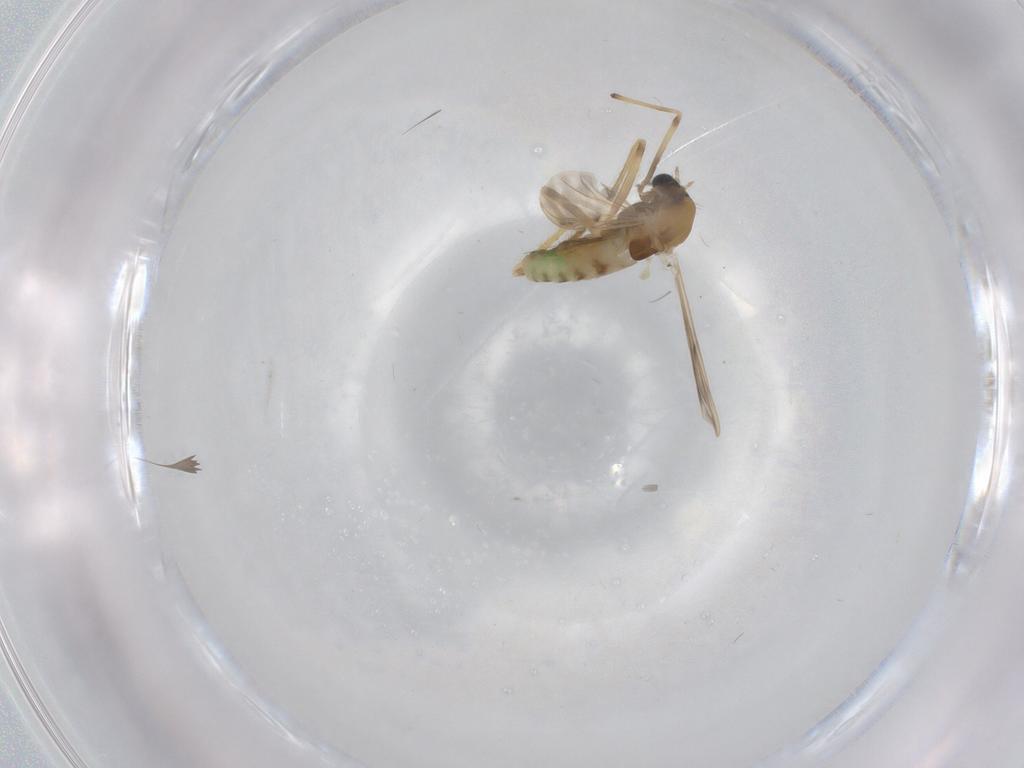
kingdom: Animalia
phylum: Arthropoda
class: Insecta
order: Diptera
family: Chironomidae
